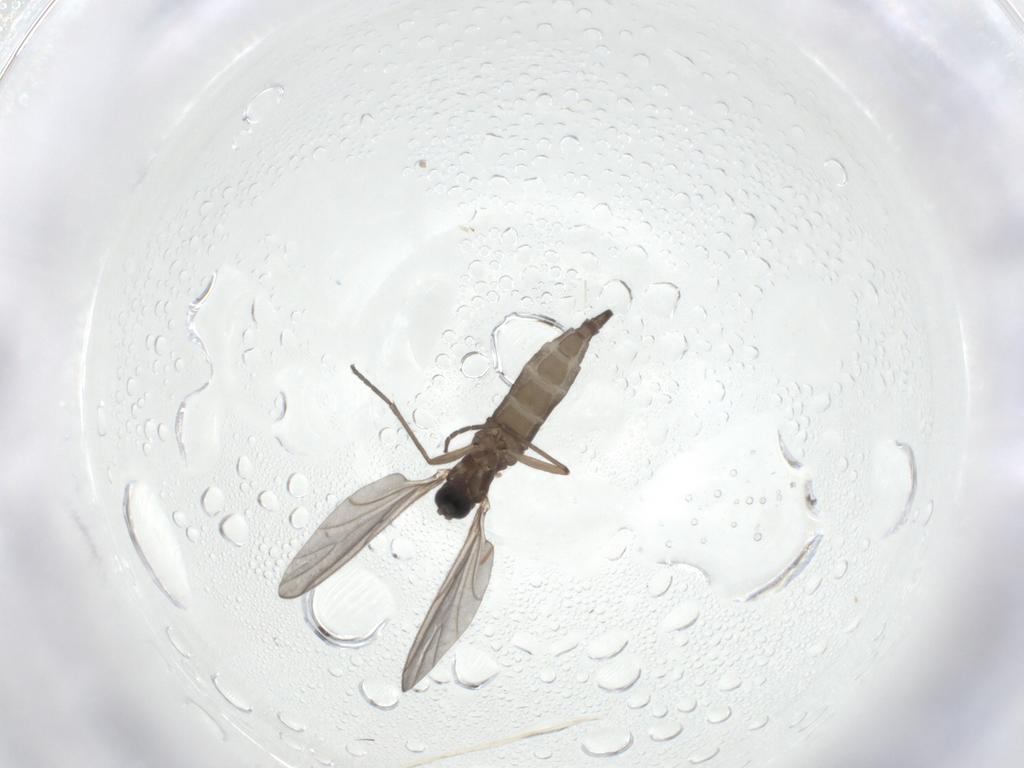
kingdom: Animalia
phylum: Arthropoda
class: Insecta
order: Diptera
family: Sciaridae
